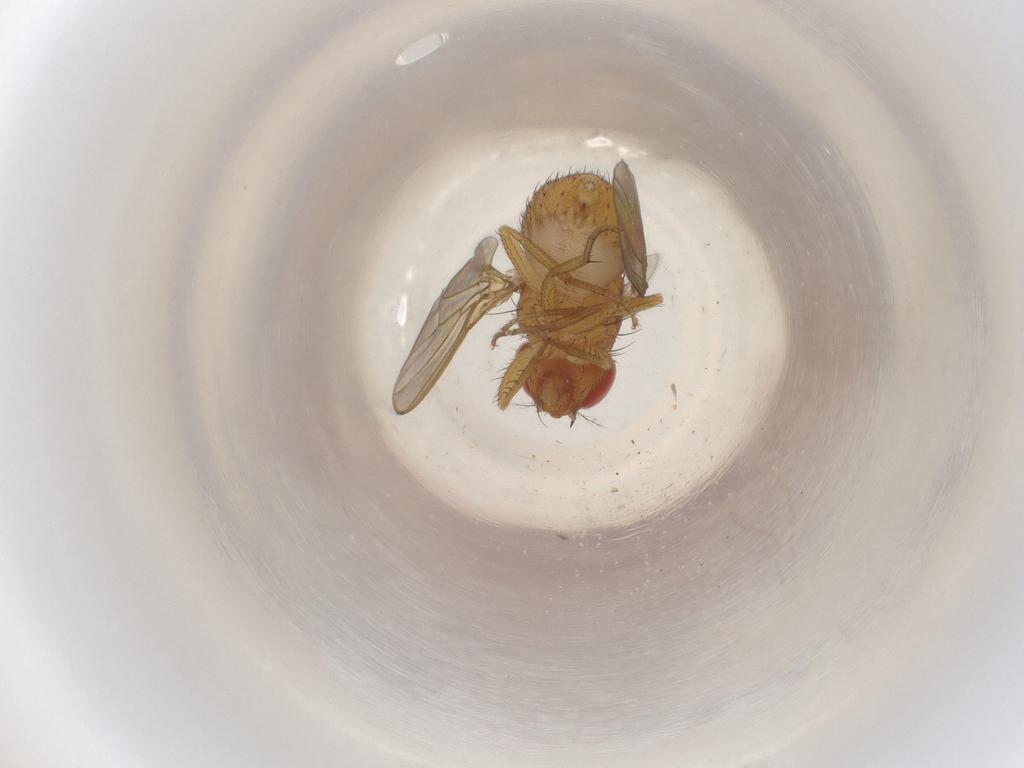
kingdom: Animalia
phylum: Arthropoda
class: Insecta
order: Diptera
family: Drosophilidae
